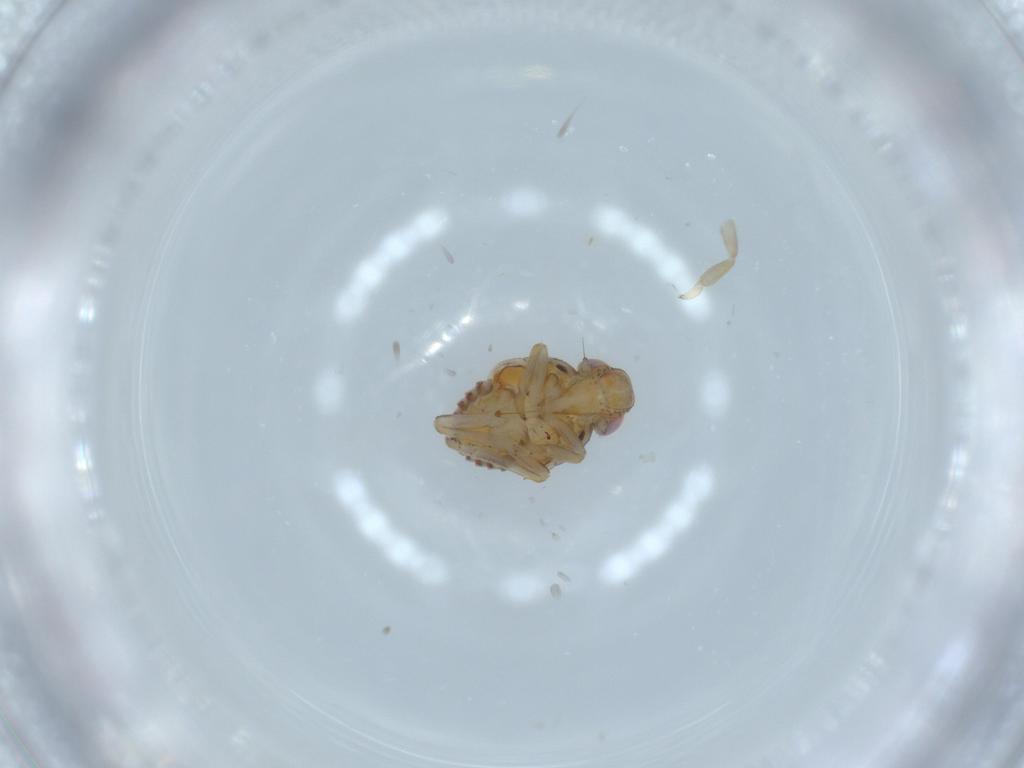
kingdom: Animalia
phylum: Arthropoda
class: Insecta
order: Hemiptera
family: Issidae
